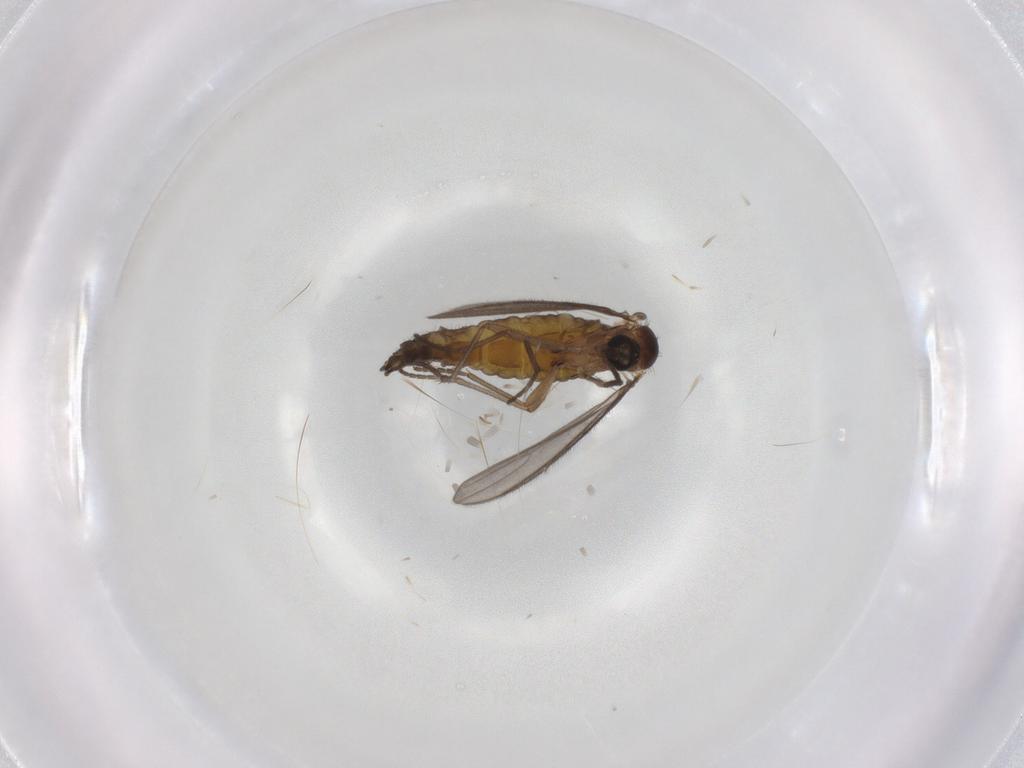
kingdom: Animalia
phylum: Arthropoda
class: Insecta
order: Diptera
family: Sciaridae
